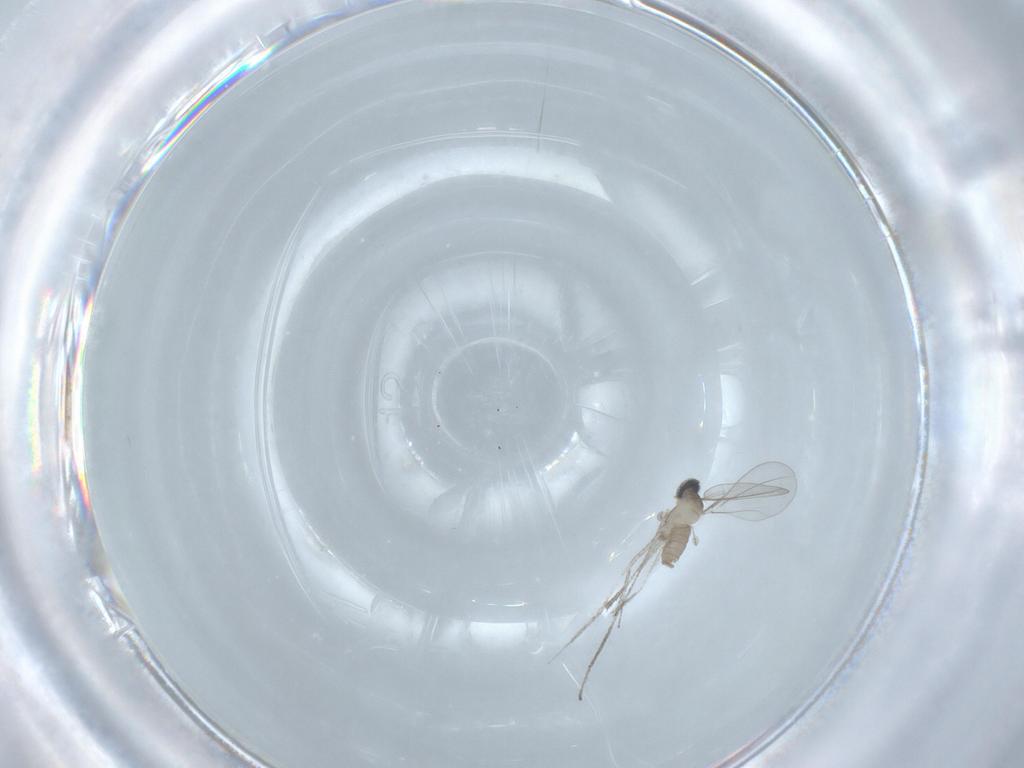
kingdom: Animalia
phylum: Arthropoda
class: Insecta
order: Diptera
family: Cecidomyiidae
